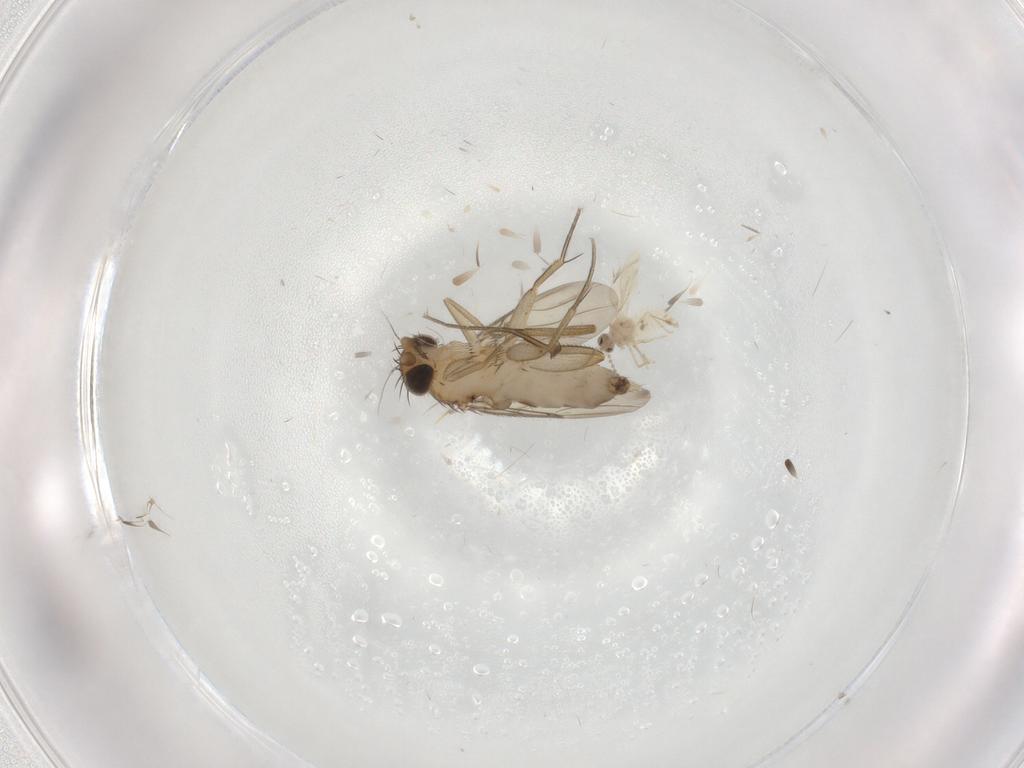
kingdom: Animalia
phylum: Arthropoda
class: Insecta
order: Diptera
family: Phoridae
